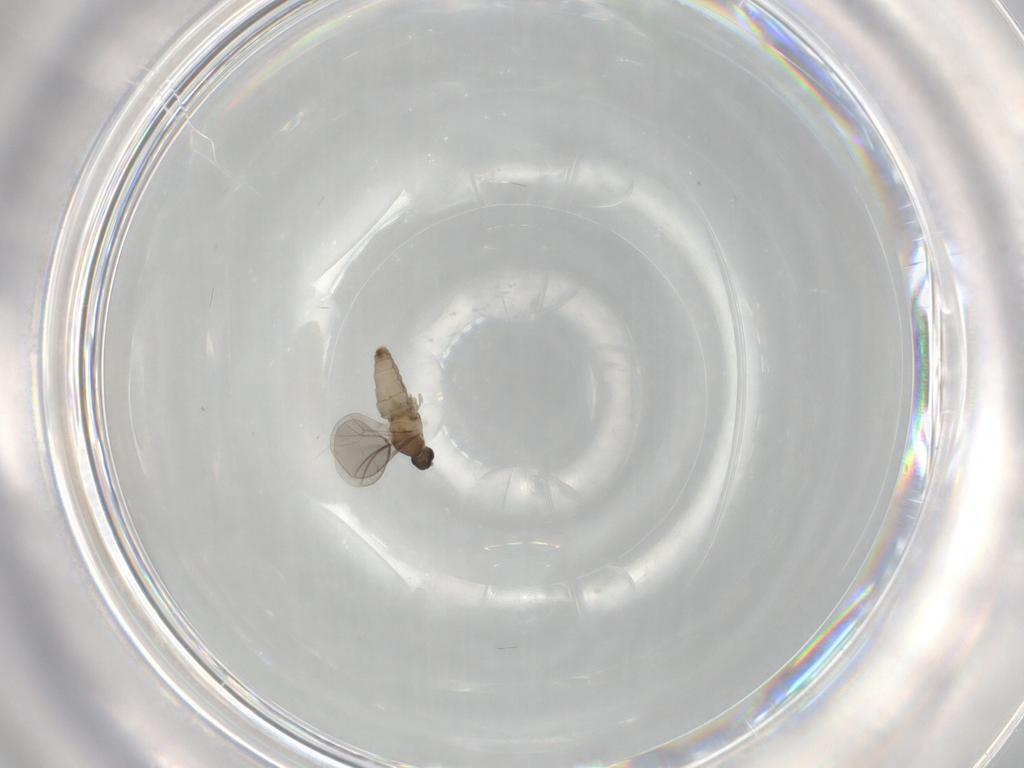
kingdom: Animalia
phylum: Arthropoda
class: Insecta
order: Diptera
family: Cecidomyiidae
